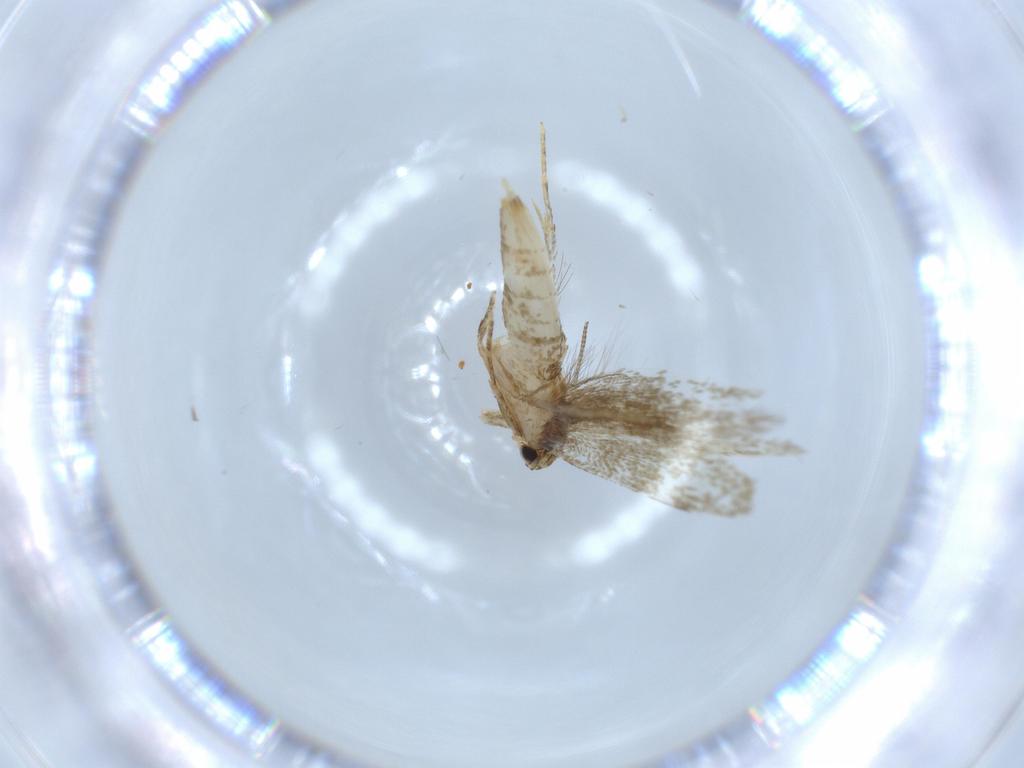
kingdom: Animalia
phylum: Arthropoda
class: Insecta
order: Lepidoptera
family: Tineidae
